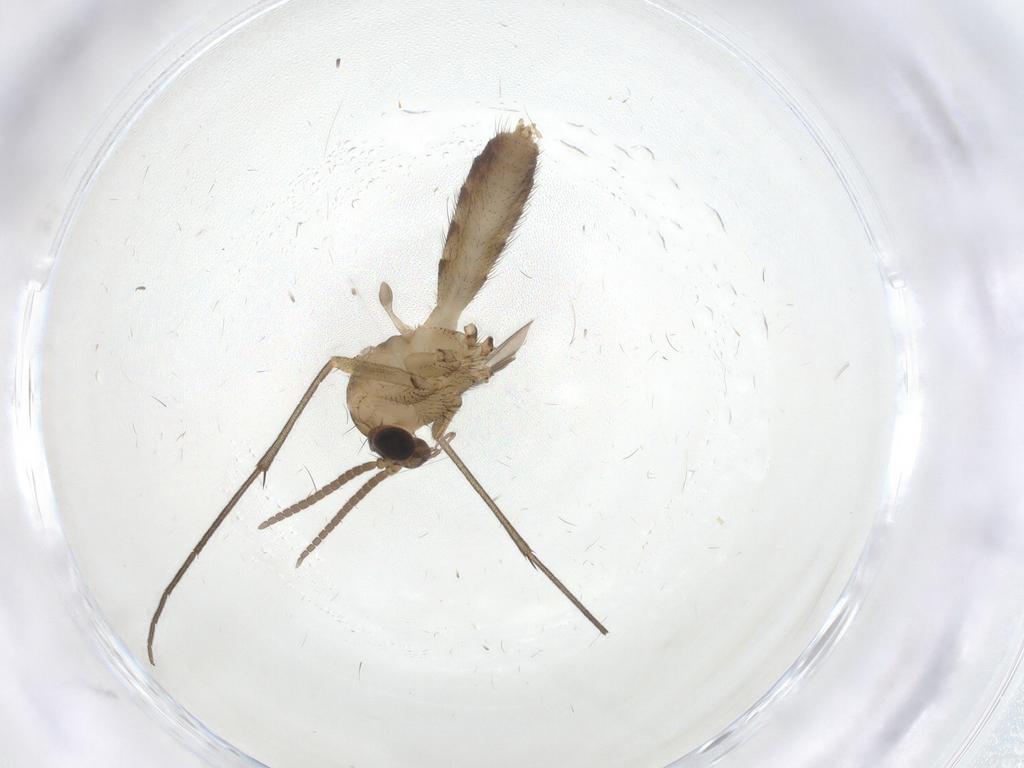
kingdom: Animalia
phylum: Arthropoda
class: Insecta
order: Diptera
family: Mycetophilidae
